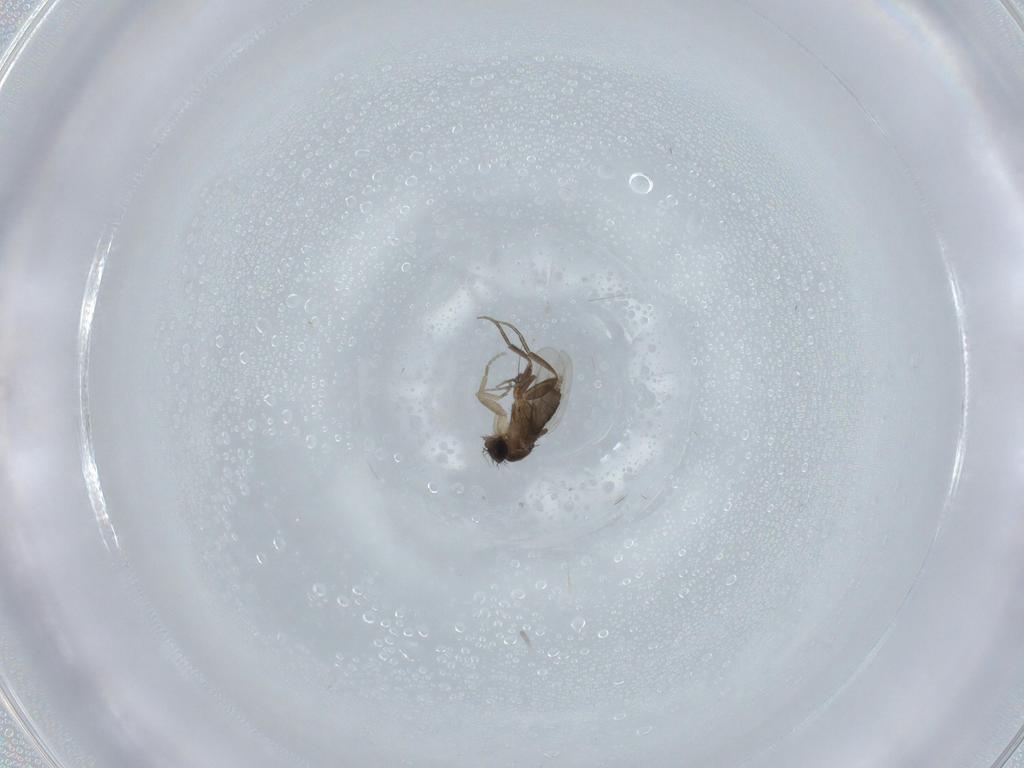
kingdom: Animalia
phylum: Arthropoda
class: Insecta
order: Diptera
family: Phoridae
